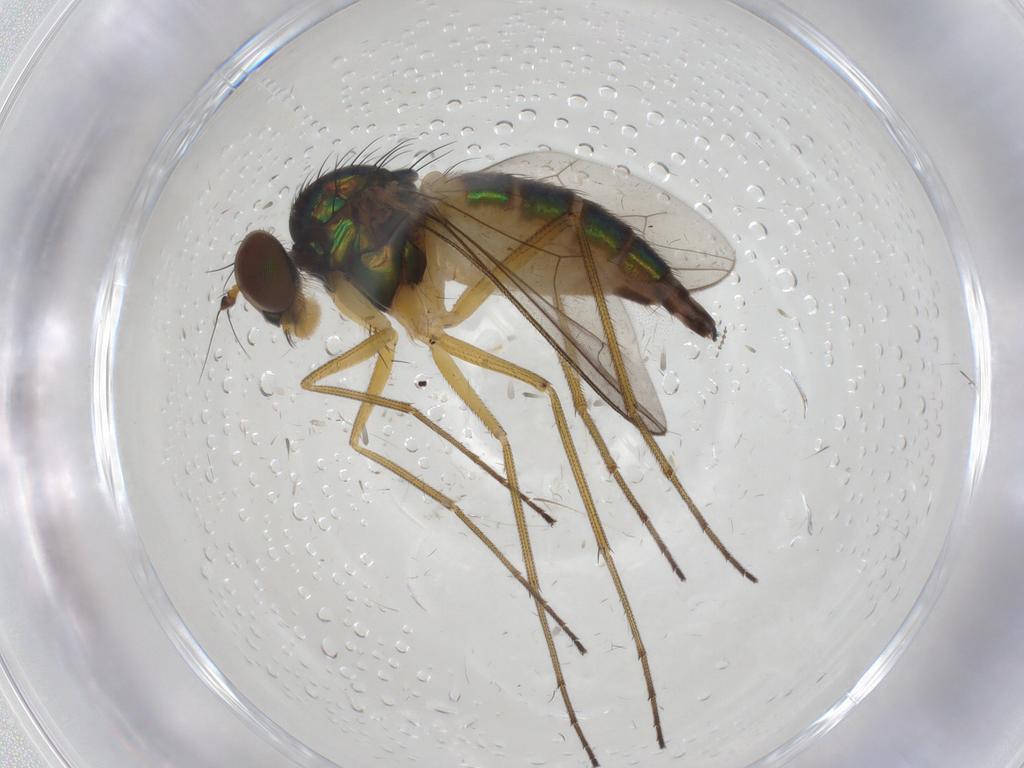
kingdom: Animalia
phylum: Arthropoda
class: Insecta
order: Diptera
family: Dolichopodidae
